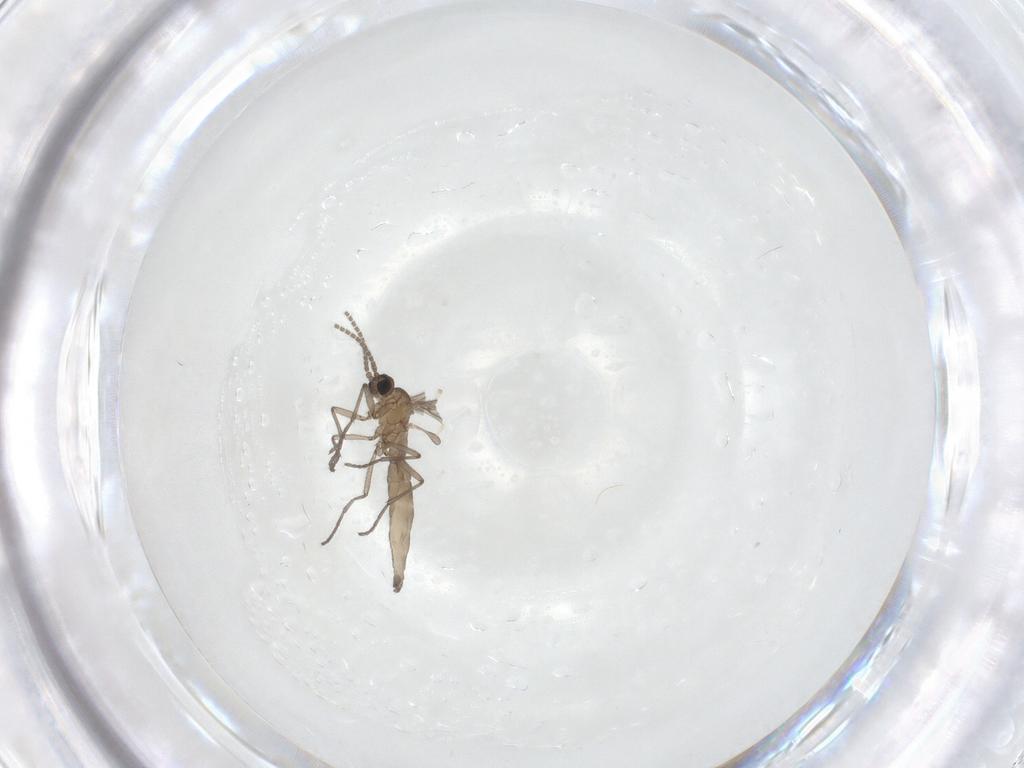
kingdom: Animalia
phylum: Arthropoda
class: Insecta
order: Diptera
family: Sciaridae
